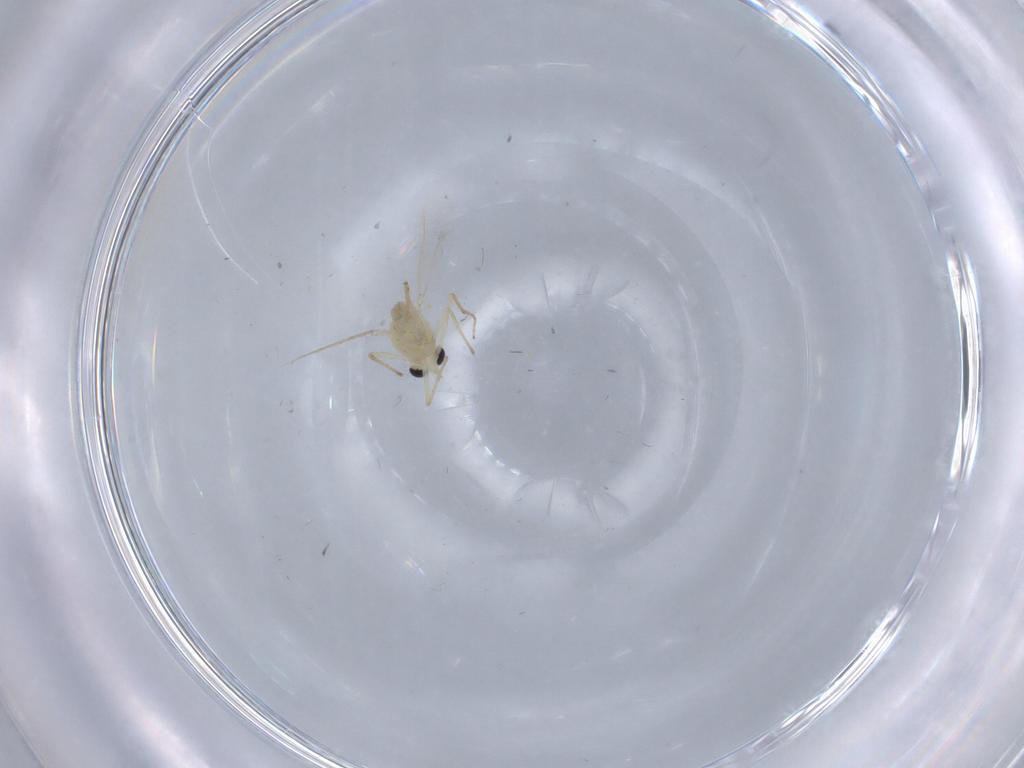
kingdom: Animalia
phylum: Arthropoda
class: Insecta
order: Diptera
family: Chironomidae
